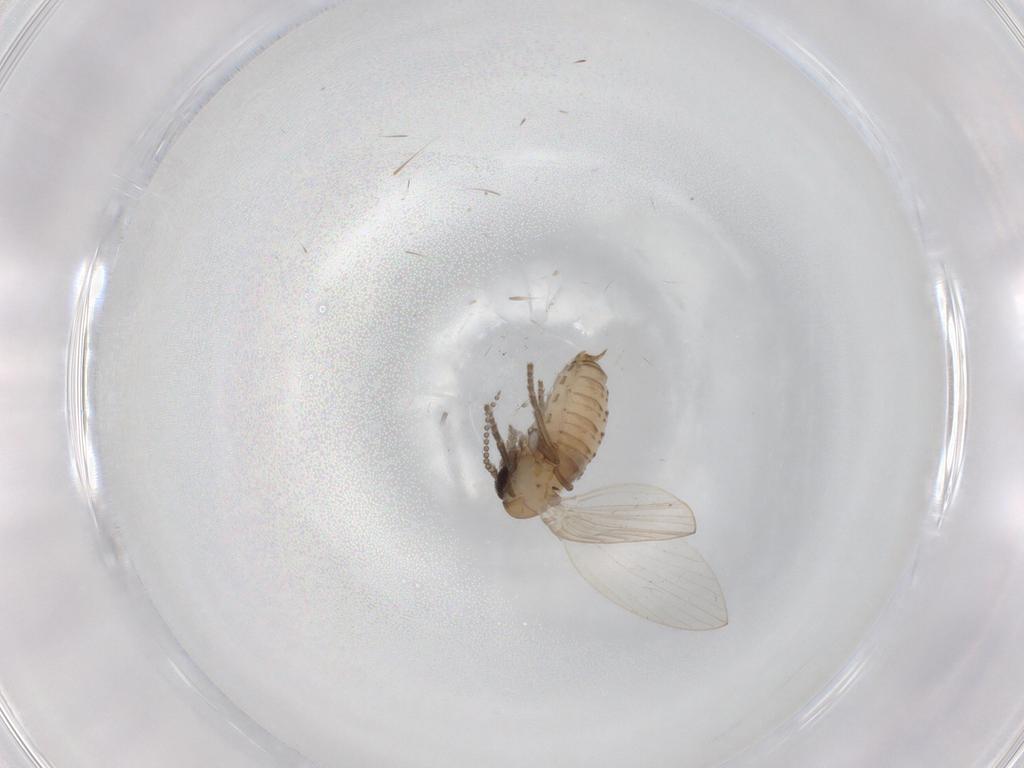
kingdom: Animalia
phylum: Arthropoda
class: Insecta
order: Diptera
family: Psychodidae
